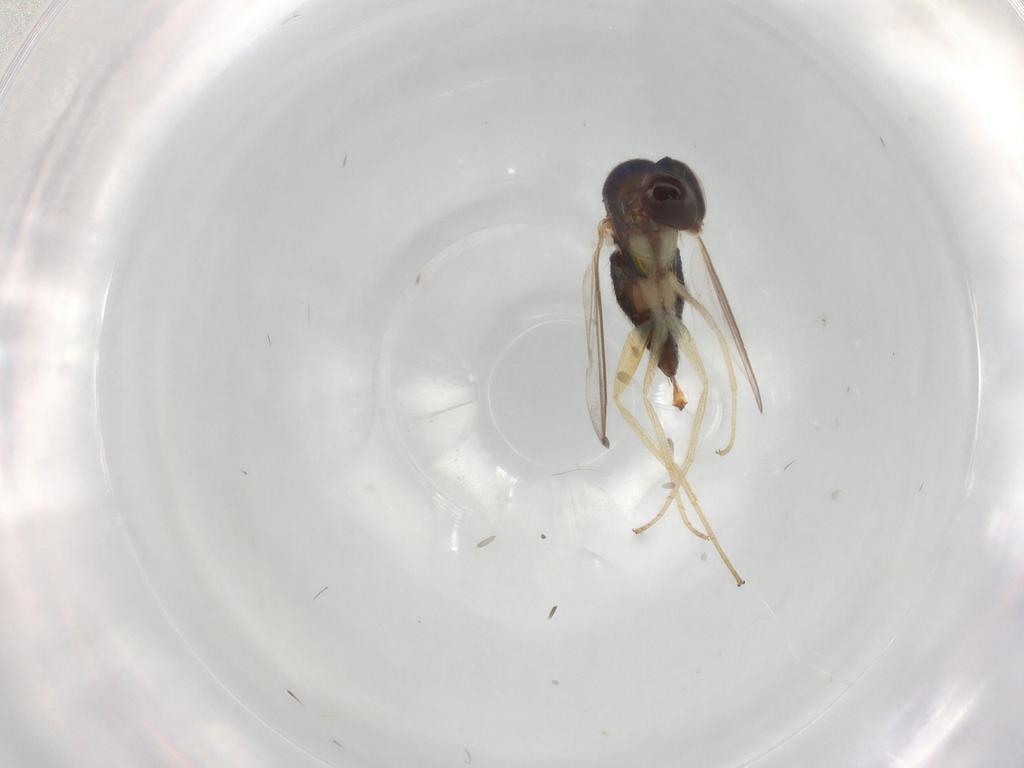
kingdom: Animalia
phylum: Arthropoda
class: Insecta
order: Diptera
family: Dolichopodidae
